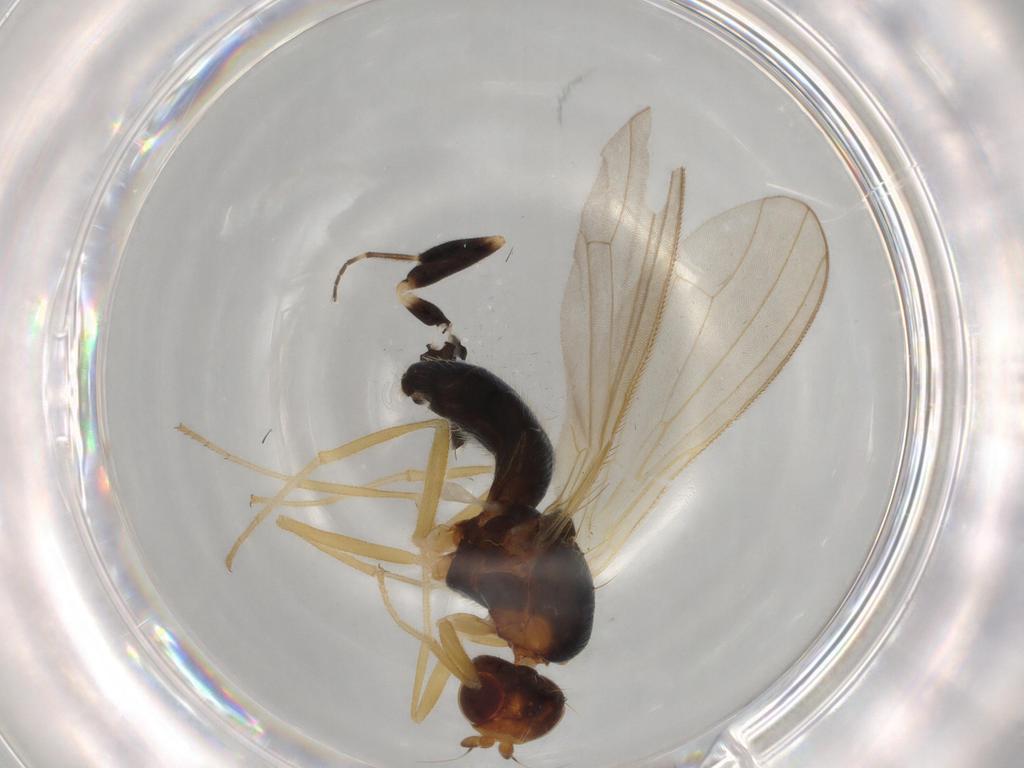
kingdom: Animalia
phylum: Arthropoda
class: Insecta
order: Diptera
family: Hybotidae
